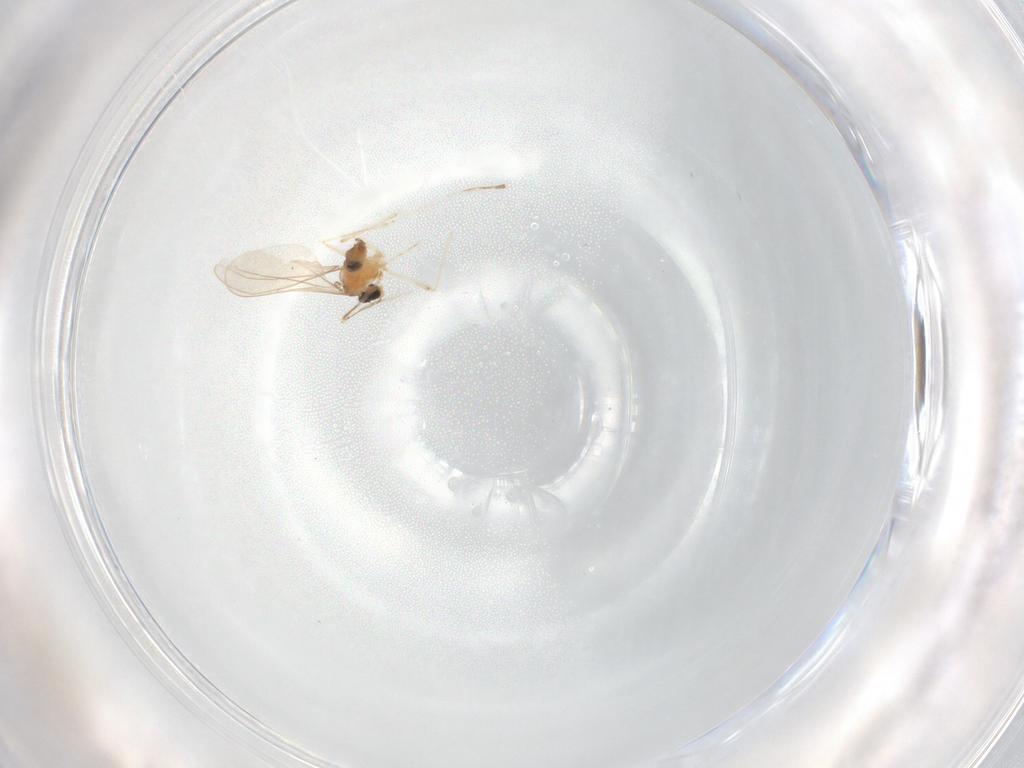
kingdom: Animalia
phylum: Arthropoda
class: Insecta
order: Diptera
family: Cecidomyiidae
